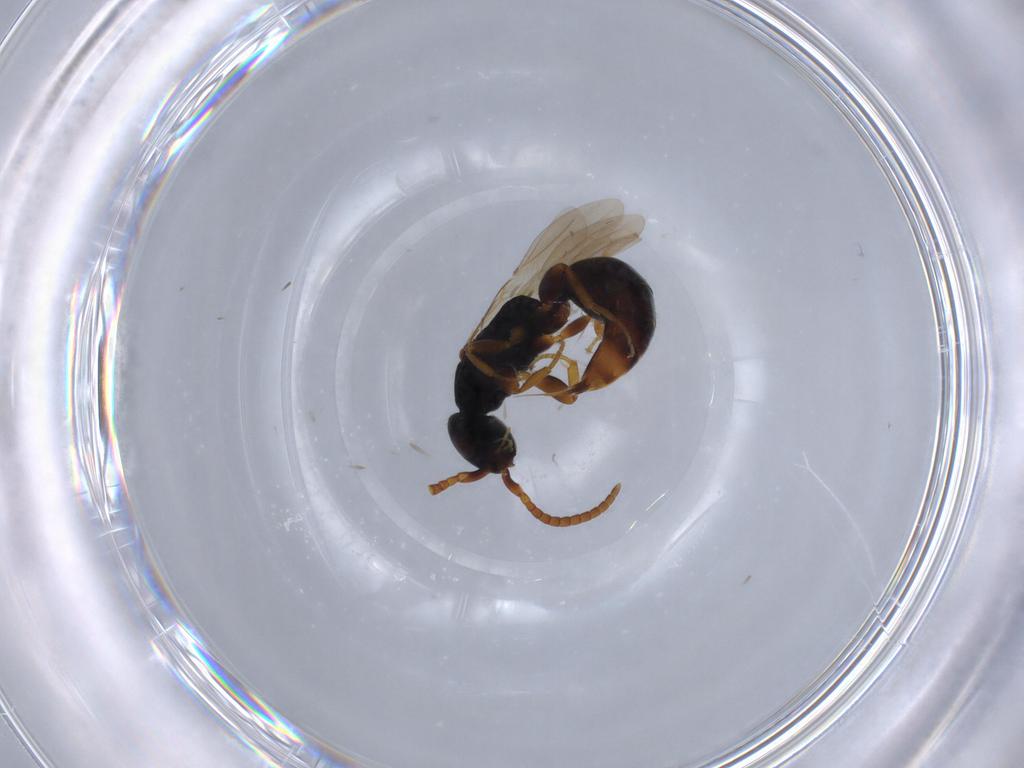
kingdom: Animalia
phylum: Arthropoda
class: Insecta
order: Hymenoptera
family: Bethylidae
